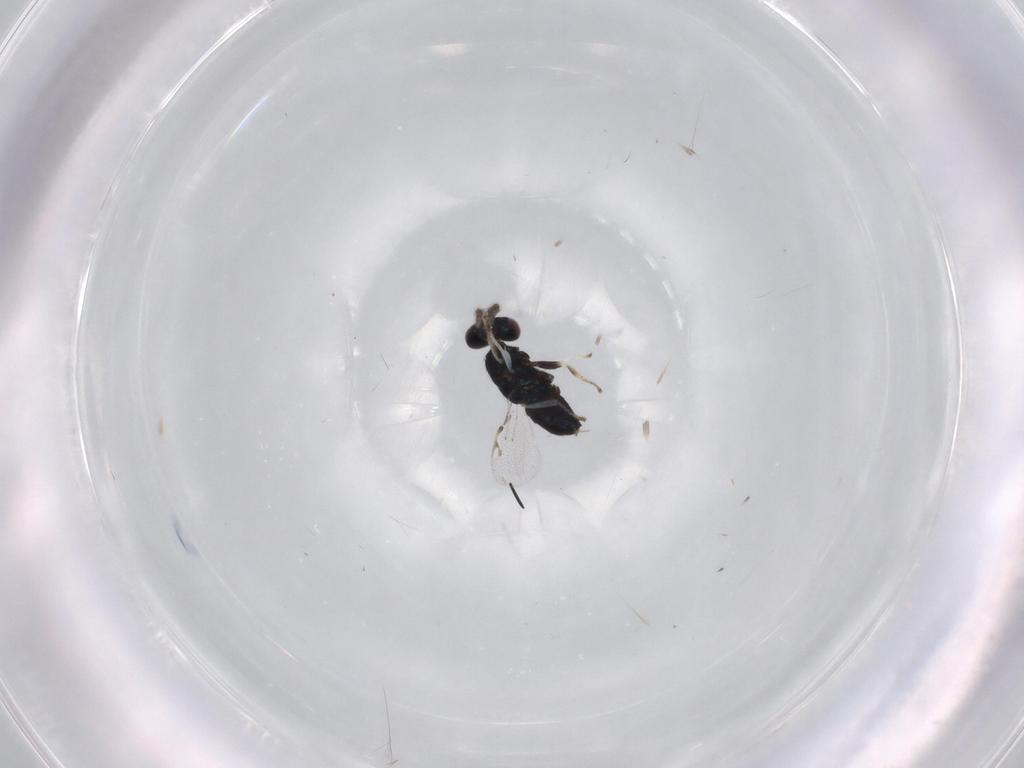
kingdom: Animalia
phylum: Arthropoda
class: Insecta
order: Hymenoptera
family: Pirenidae
